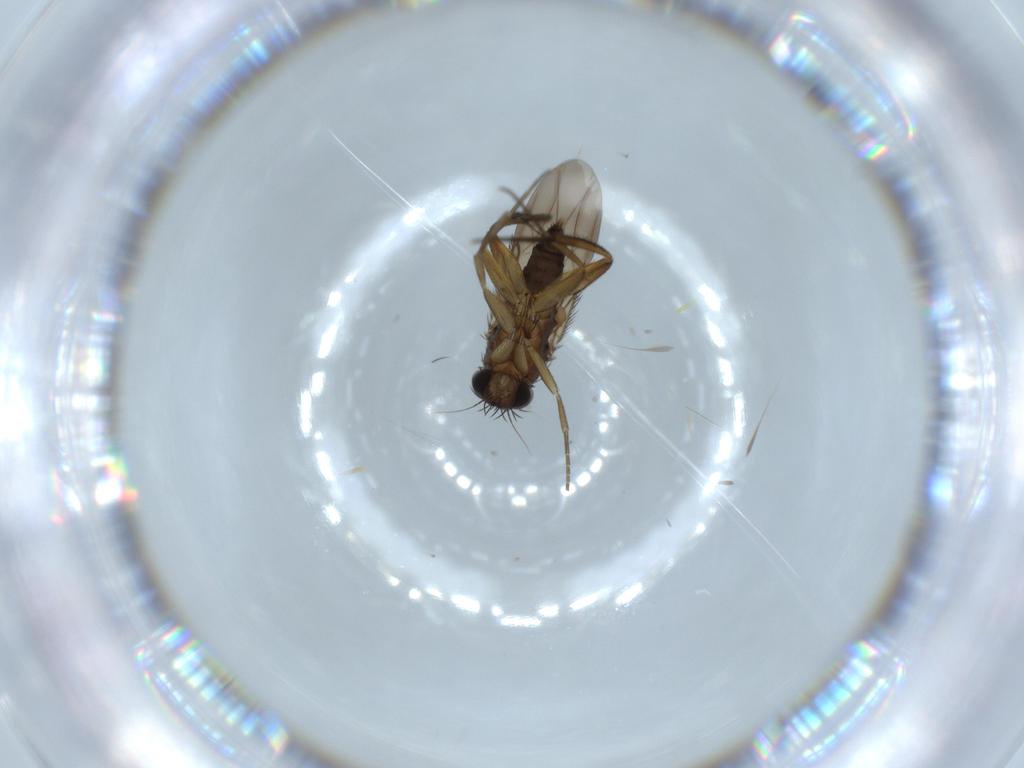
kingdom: Animalia
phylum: Arthropoda
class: Insecta
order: Diptera
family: Phoridae
